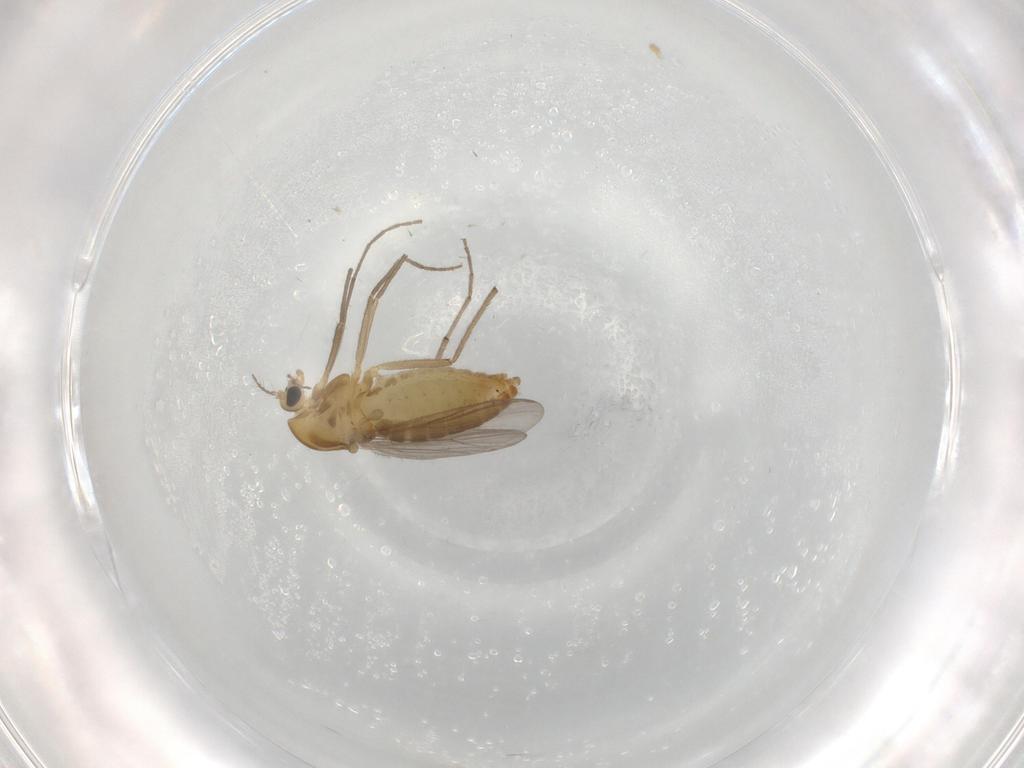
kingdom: Animalia
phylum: Arthropoda
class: Insecta
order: Diptera
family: Chironomidae
